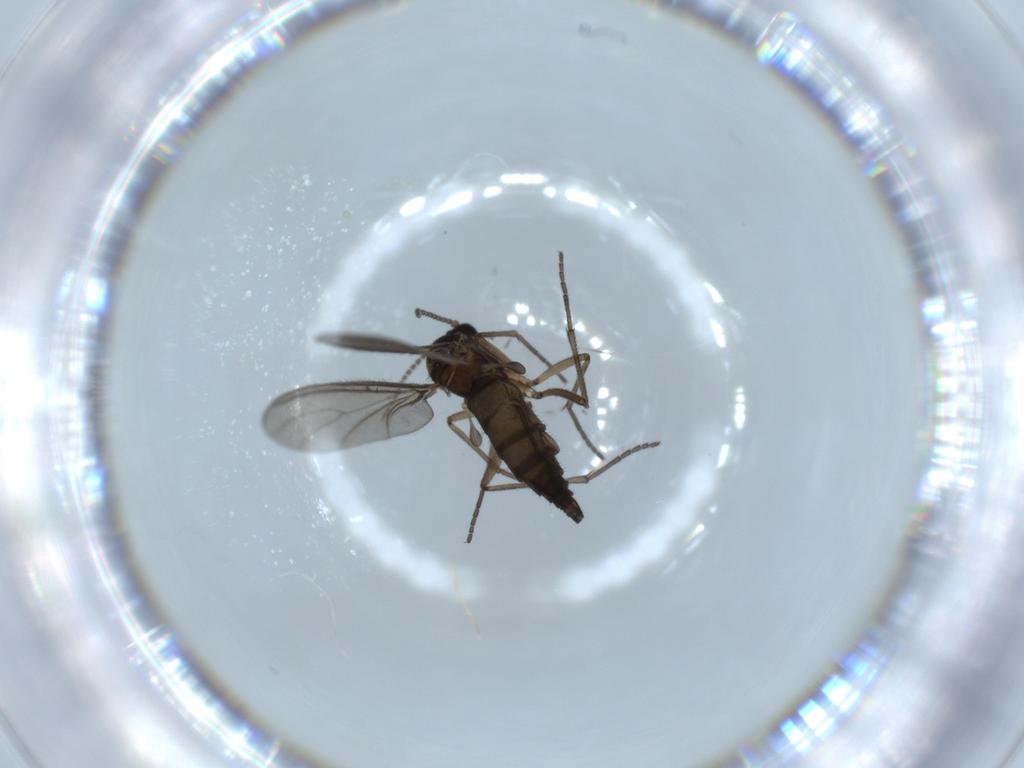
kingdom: Animalia
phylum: Arthropoda
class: Insecta
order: Diptera
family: Sciaridae
